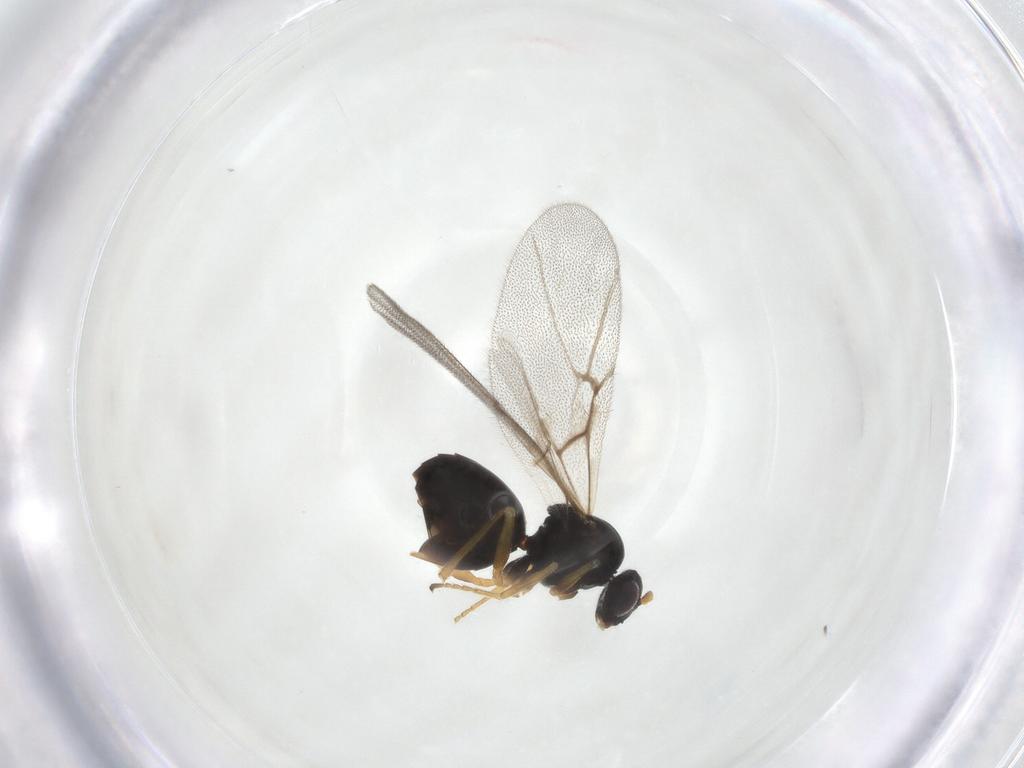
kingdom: Animalia
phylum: Arthropoda
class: Insecta
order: Hymenoptera
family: Cynipidae
